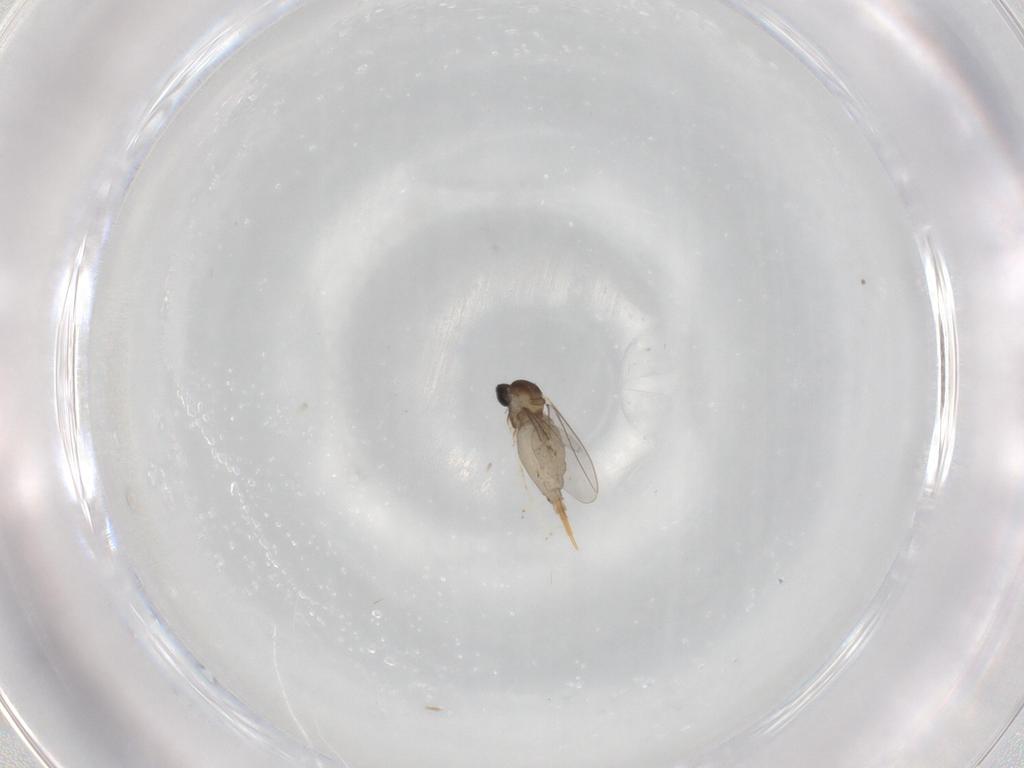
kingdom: Animalia
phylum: Arthropoda
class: Insecta
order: Diptera
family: Cecidomyiidae
